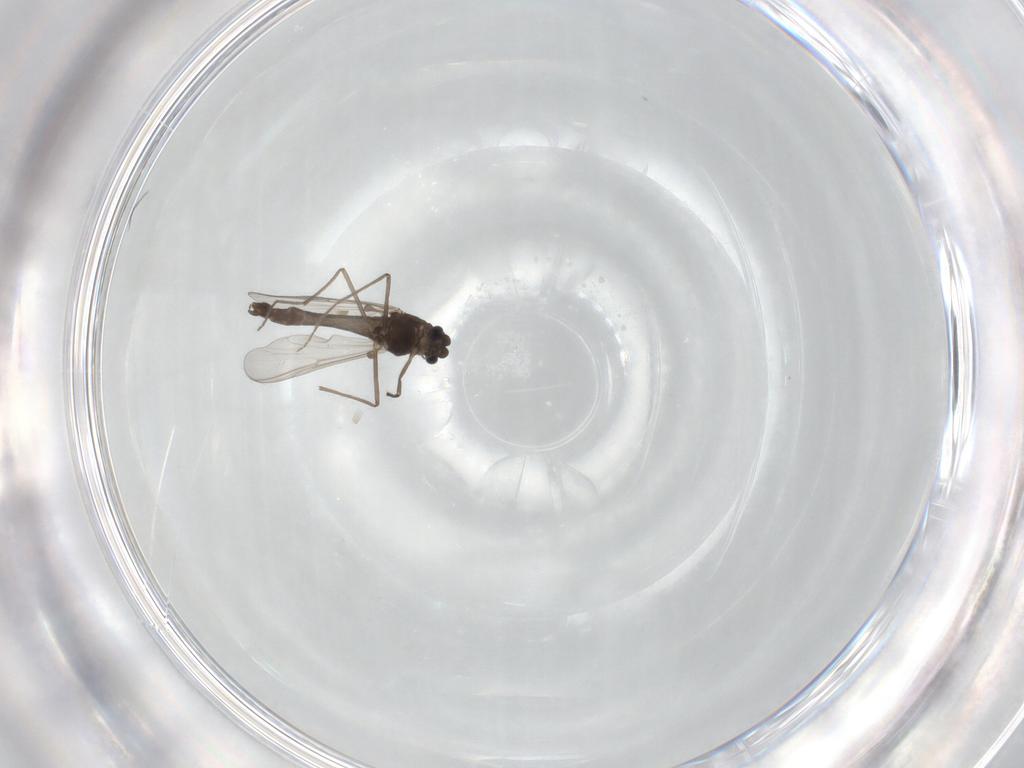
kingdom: Animalia
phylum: Arthropoda
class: Insecta
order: Diptera
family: Chironomidae
